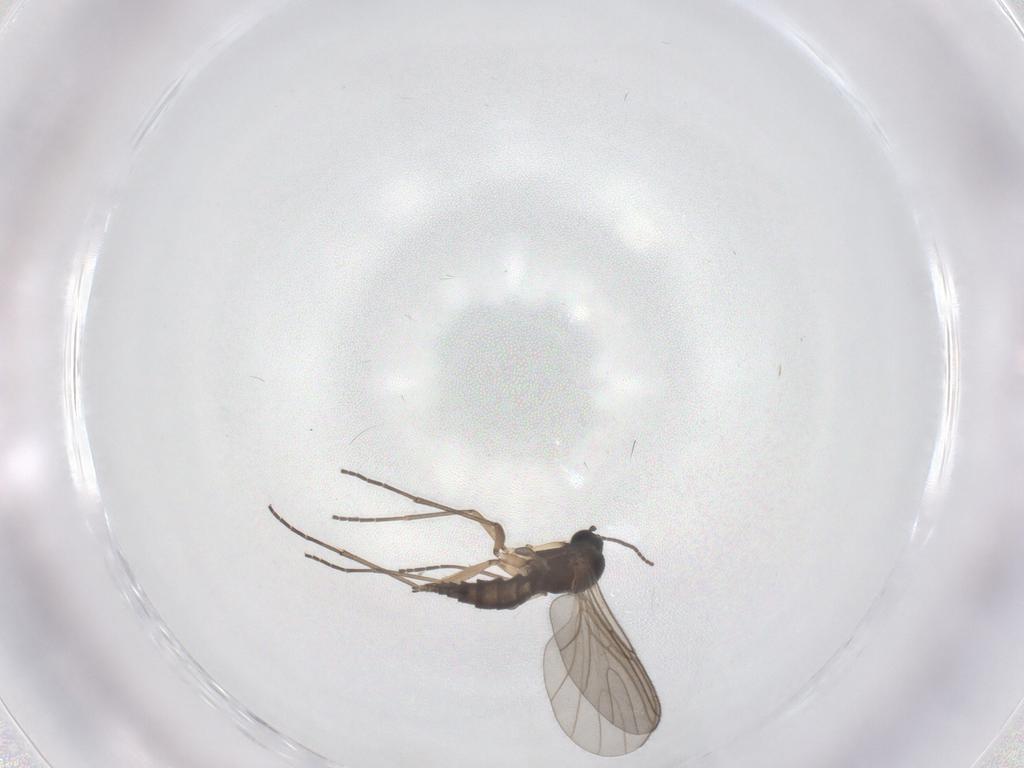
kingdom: Animalia
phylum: Arthropoda
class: Insecta
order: Diptera
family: Sciaridae
